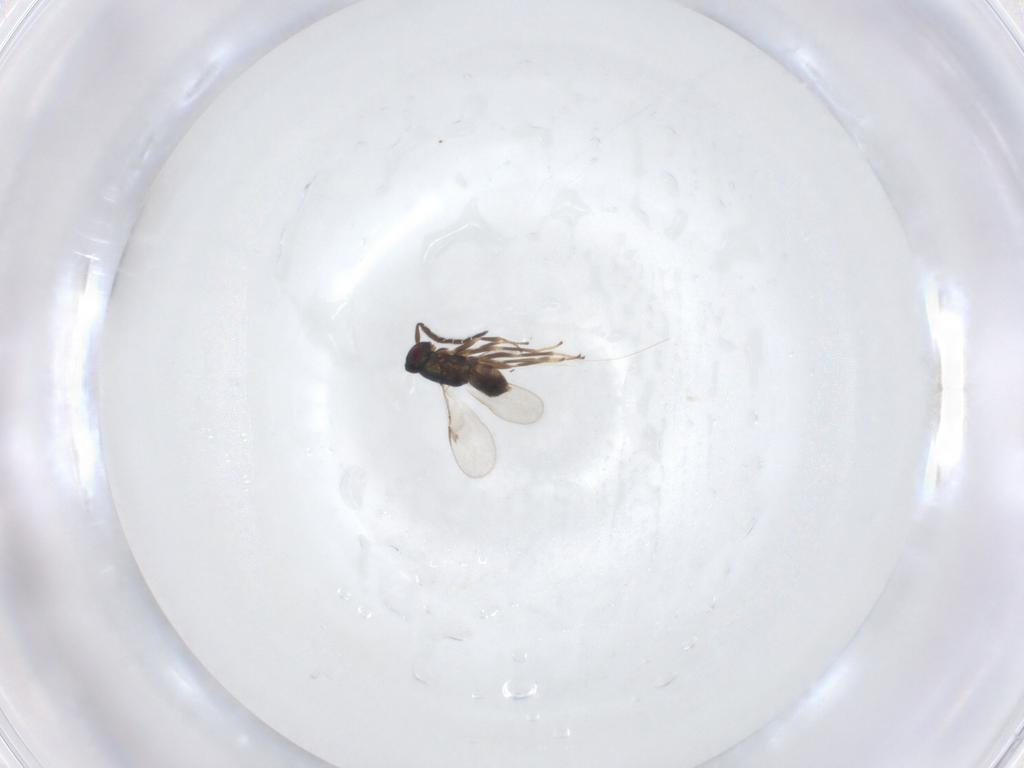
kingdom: Animalia
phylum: Arthropoda
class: Insecta
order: Hymenoptera
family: Encyrtidae
